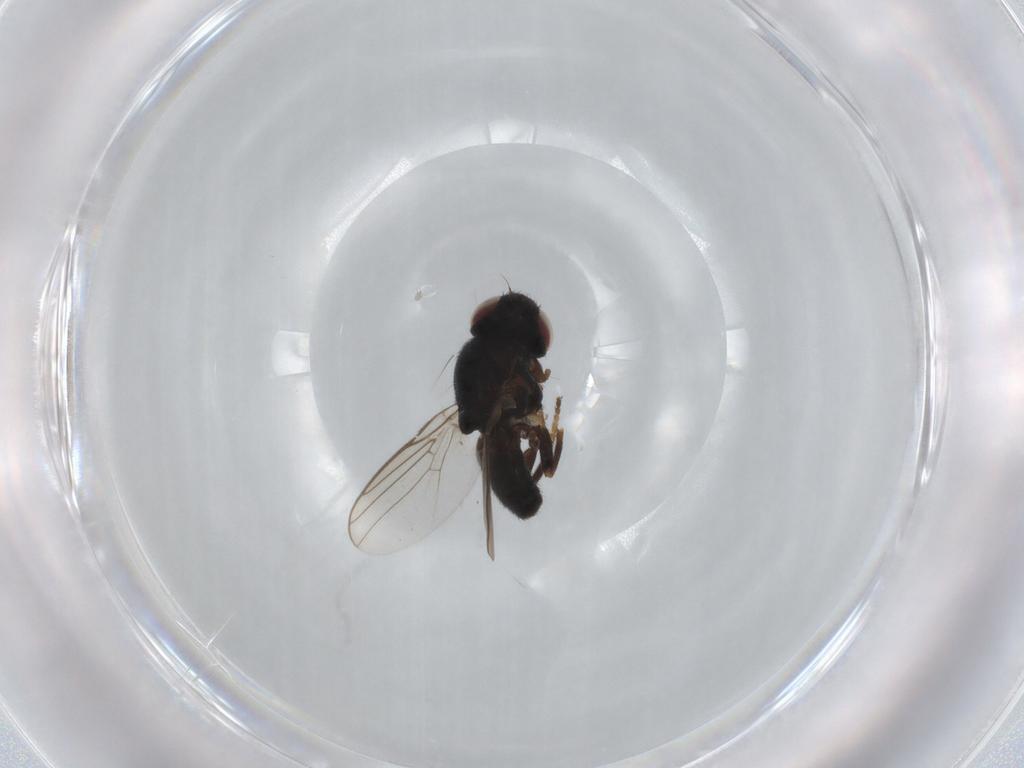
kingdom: Animalia
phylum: Arthropoda
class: Insecta
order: Diptera
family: Chloropidae
